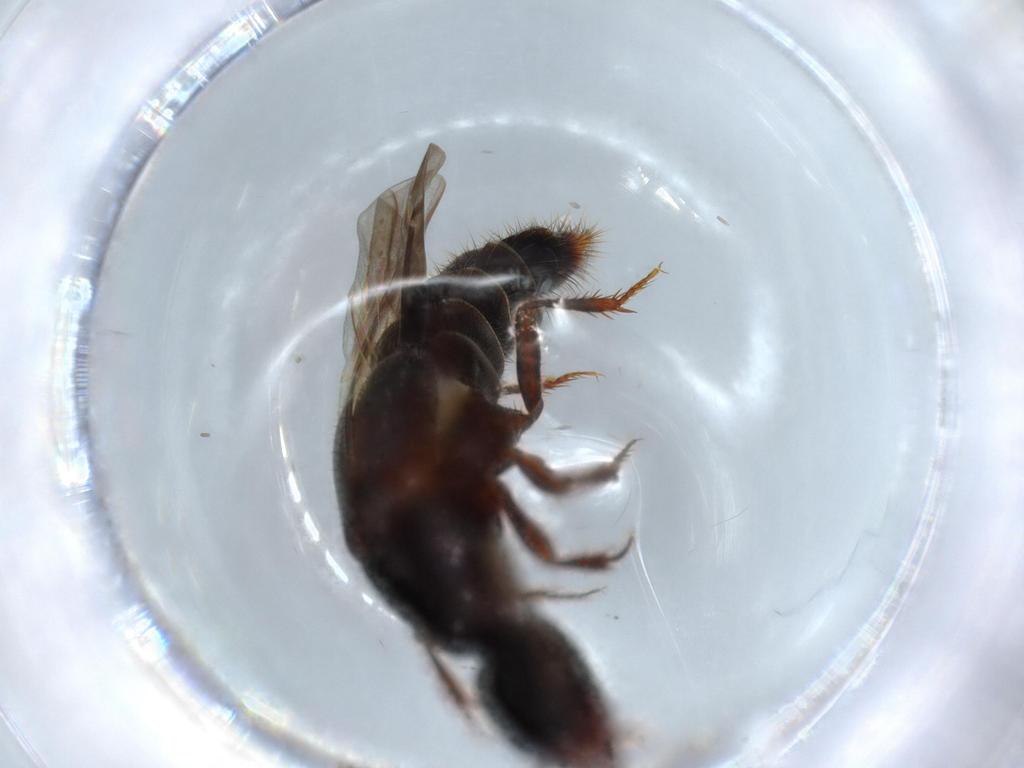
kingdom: Animalia
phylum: Arthropoda
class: Insecta
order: Coleoptera
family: Staphylinidae
